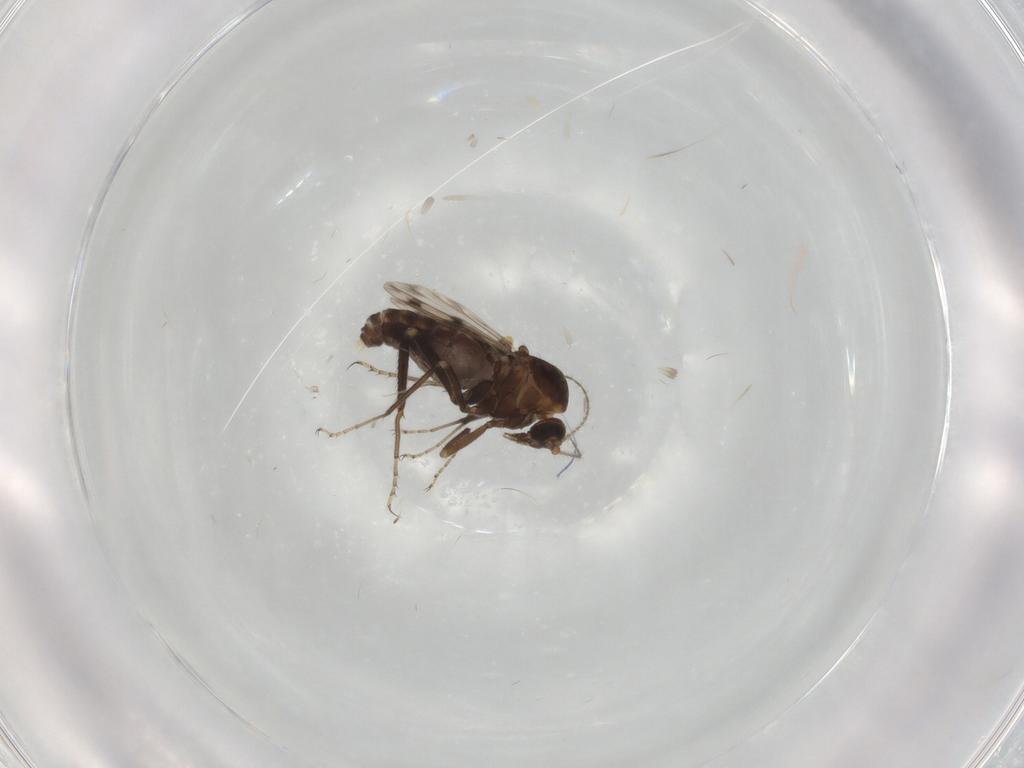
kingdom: Animalia
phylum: Arthropoda
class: Insecta
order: Diptera
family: Ceratopogonidae
